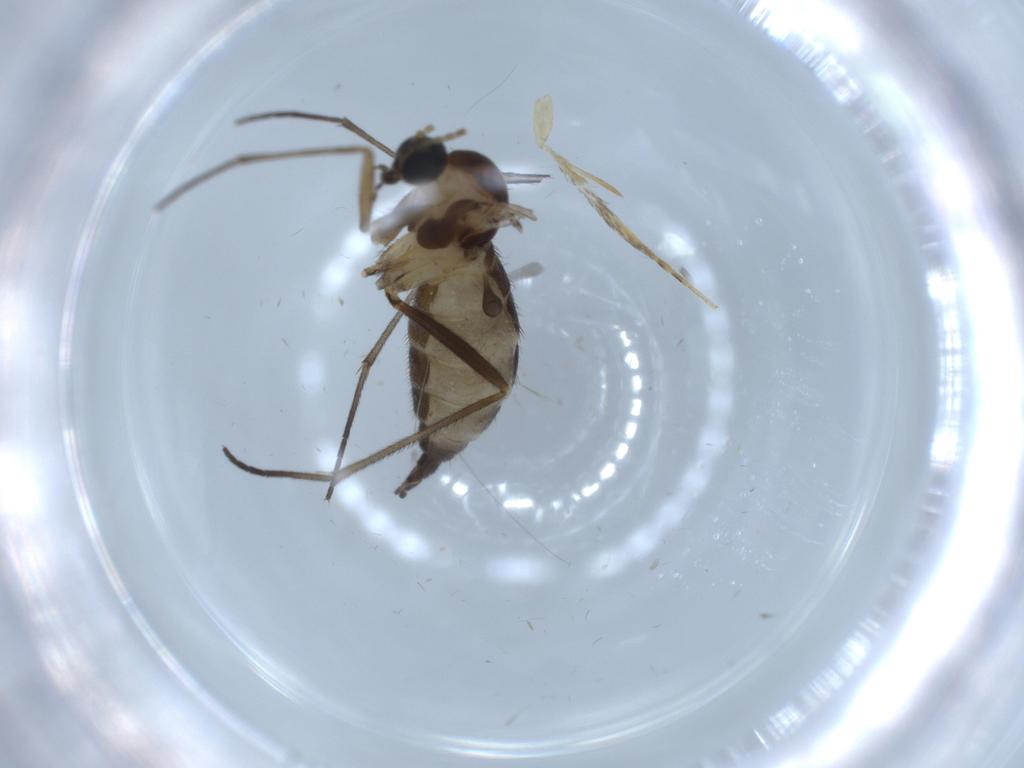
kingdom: Animalia
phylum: Arthropoda
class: Insecta
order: Diptera
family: Sciaridae
